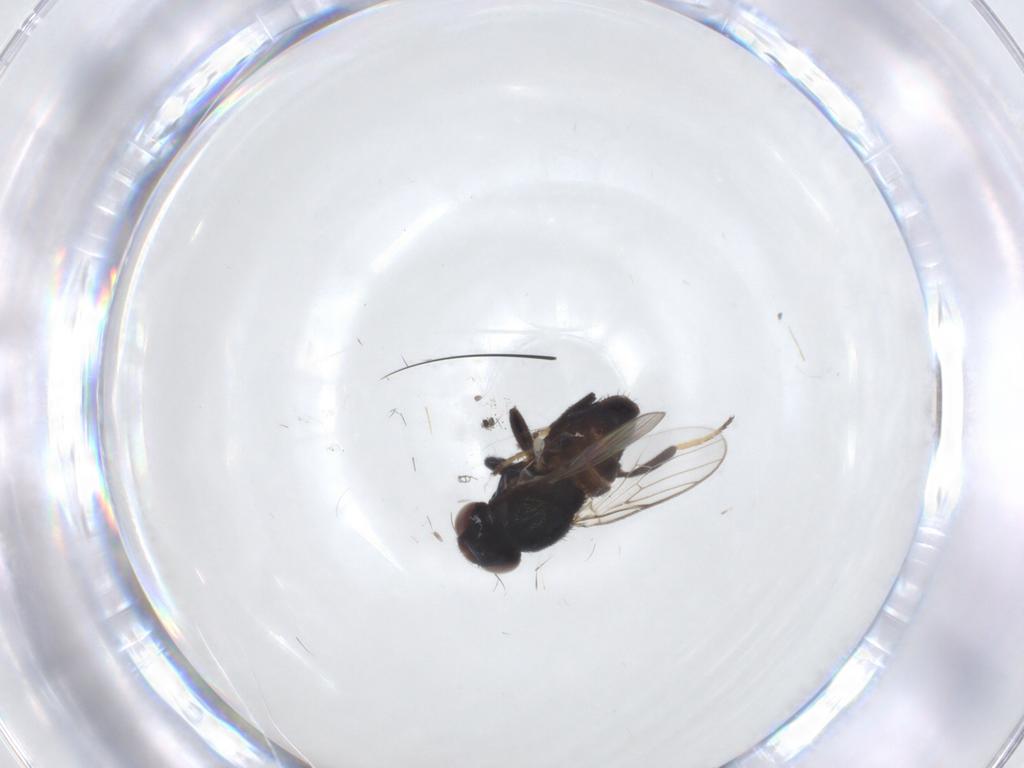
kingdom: Animalia
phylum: Arthropoda
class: Insecta
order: Diptera
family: Chloropidae
